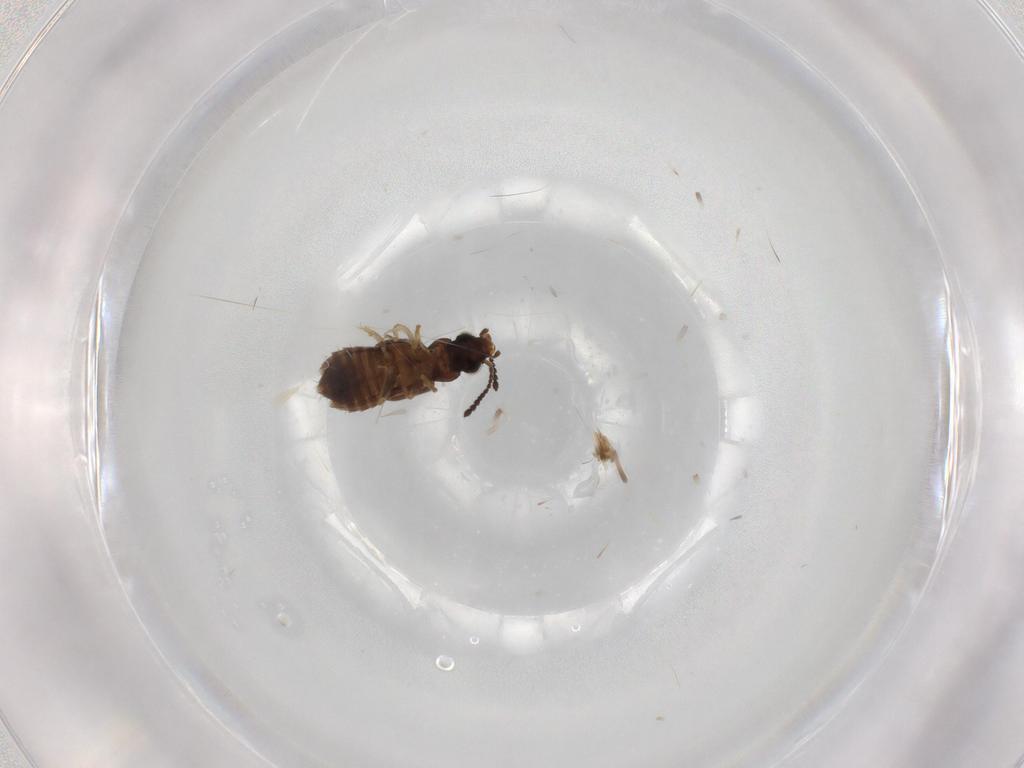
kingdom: Animalia
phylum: Arthropoda
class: Insecta
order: Coleoptera
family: Staphylinidae
